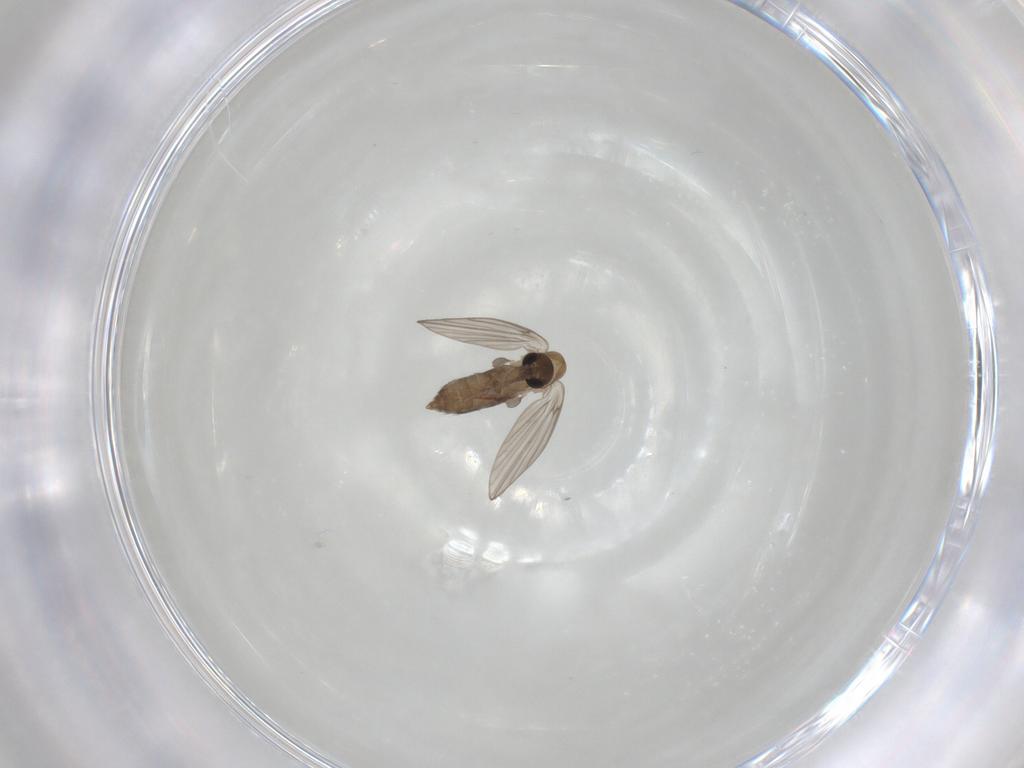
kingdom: Animalia
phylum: Arthropoda
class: Insecta
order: Diptera
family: Psychodidae
